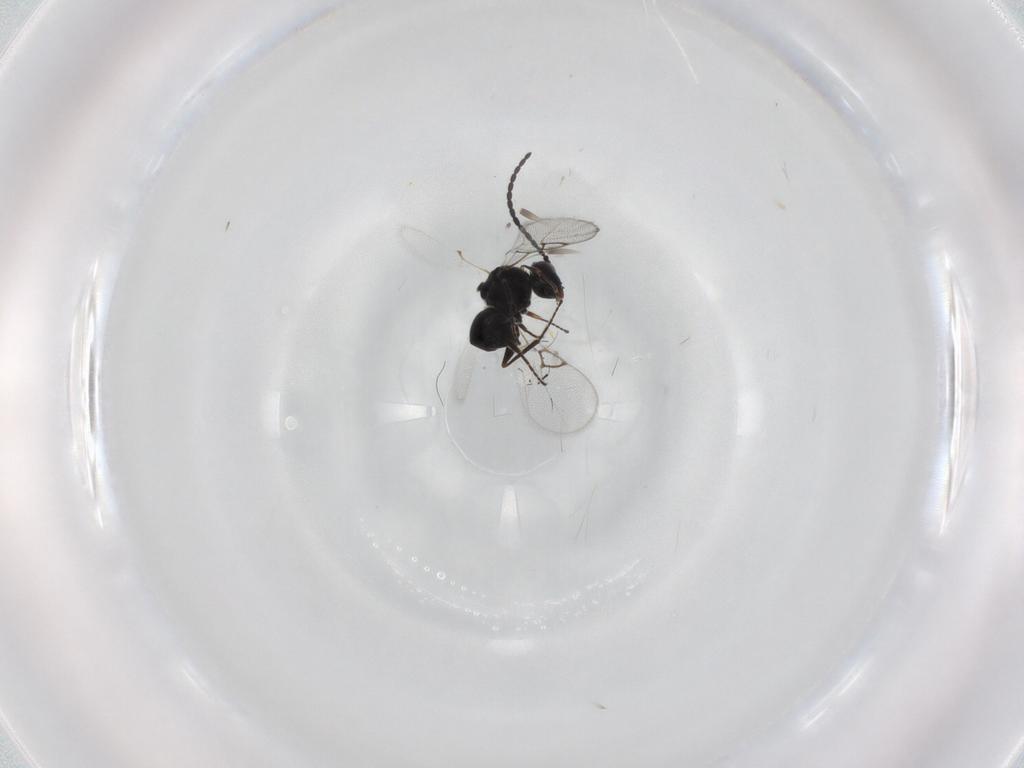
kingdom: Animalia
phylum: Arthropoda
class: Insecta
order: Hymenoptera
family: Figitidae
